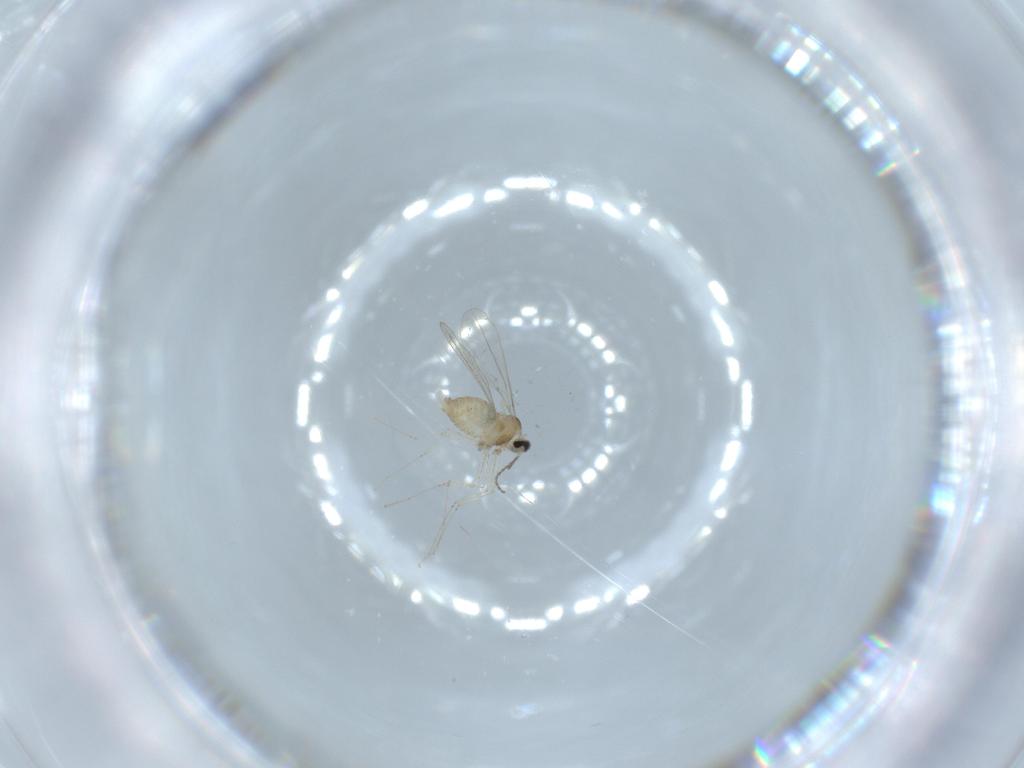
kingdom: Animalia
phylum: Arthropoda
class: Insecta
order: Diptera
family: Cecidomyiidae
